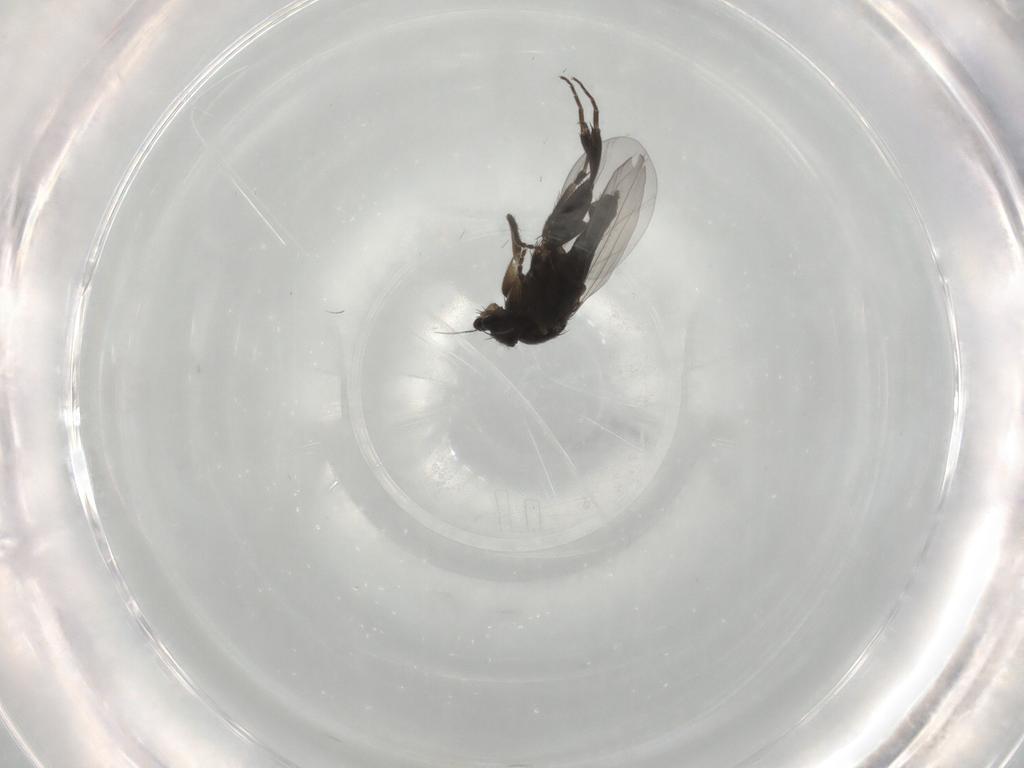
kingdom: Animalia
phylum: Arthropoda
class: Insecta
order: Diptera
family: Phoridae
